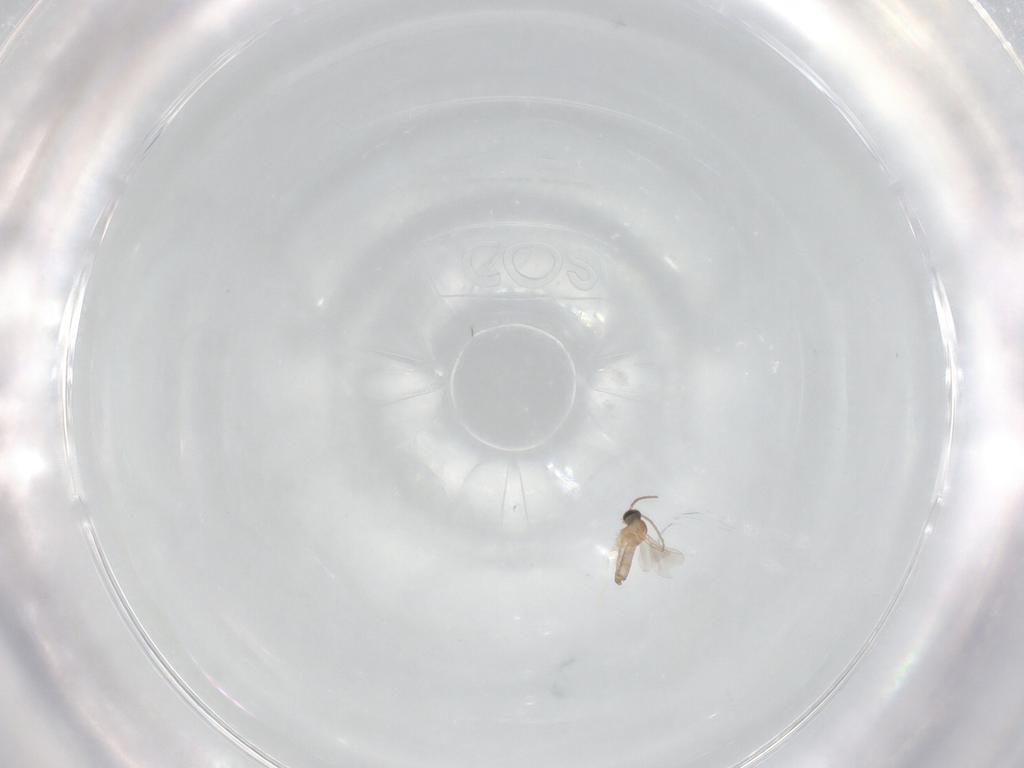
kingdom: Animalia
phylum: Arthropoda
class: Insecta
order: Diptera
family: Cecidomyiidae
